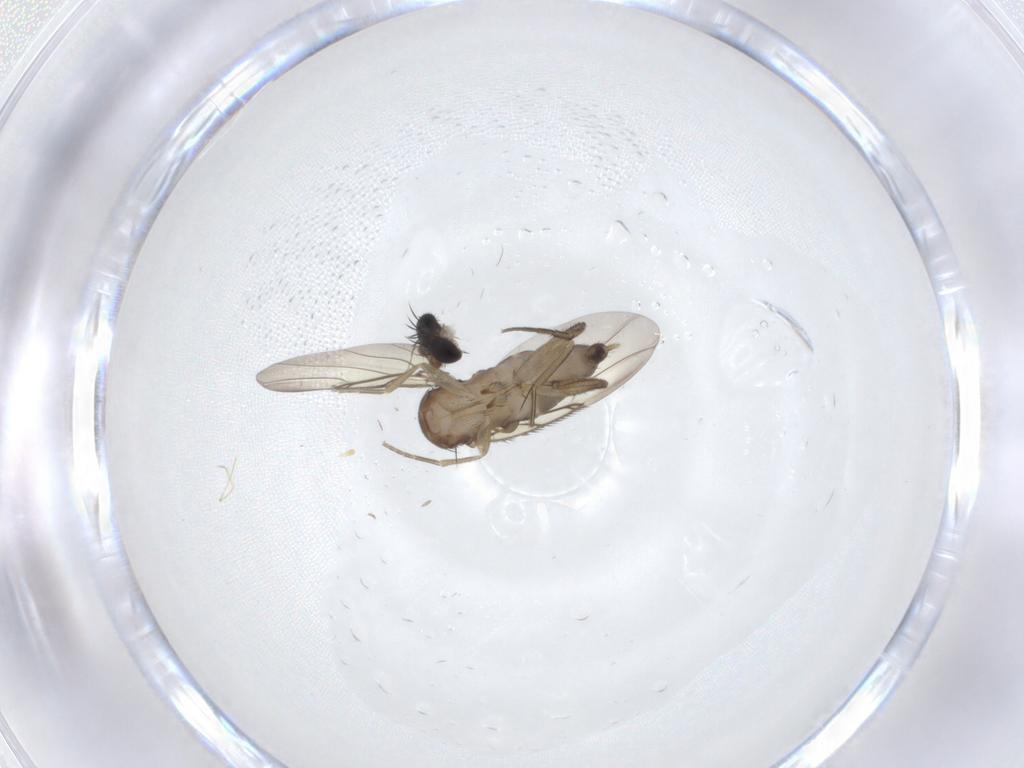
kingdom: Animalia
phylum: Arthropoda
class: Insecta
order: Diptera
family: Phoridae
